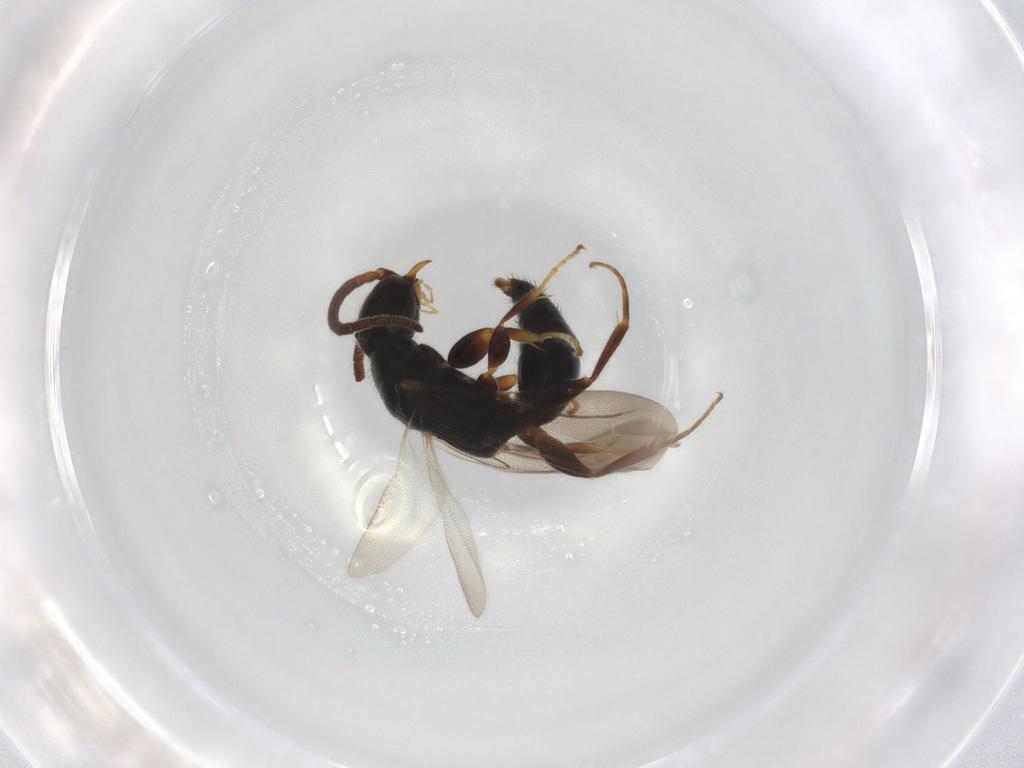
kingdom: Animalia
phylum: Arthropoda
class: Insecta
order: Hymenoptera
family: Bethylidae
